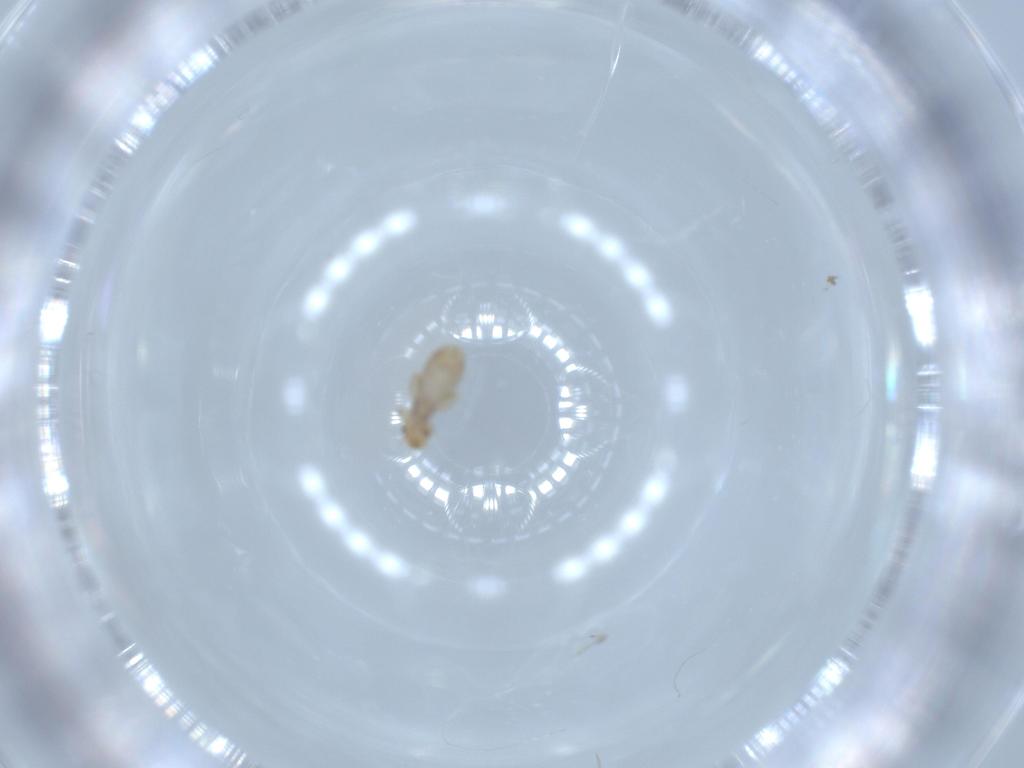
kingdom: Animalia
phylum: Arthropoda
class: Insecta
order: Psocodea
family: Liposcelididae
